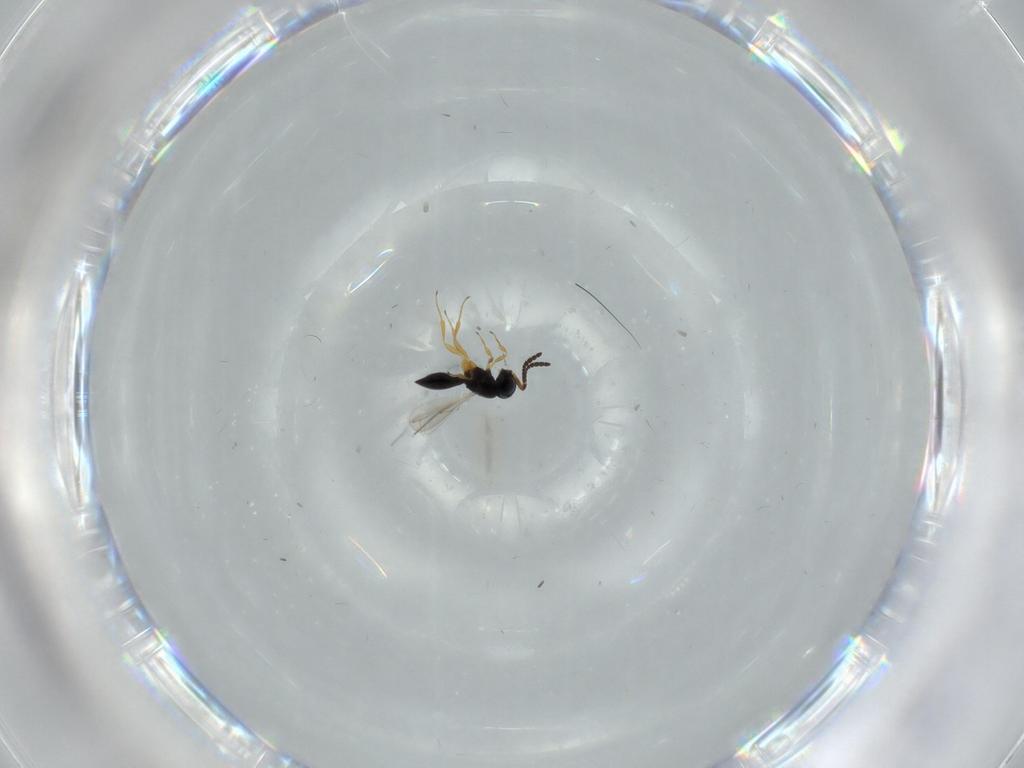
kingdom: Animalia
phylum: Arthropoda
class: Insecta
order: Hymenoptera
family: Scelionidae
